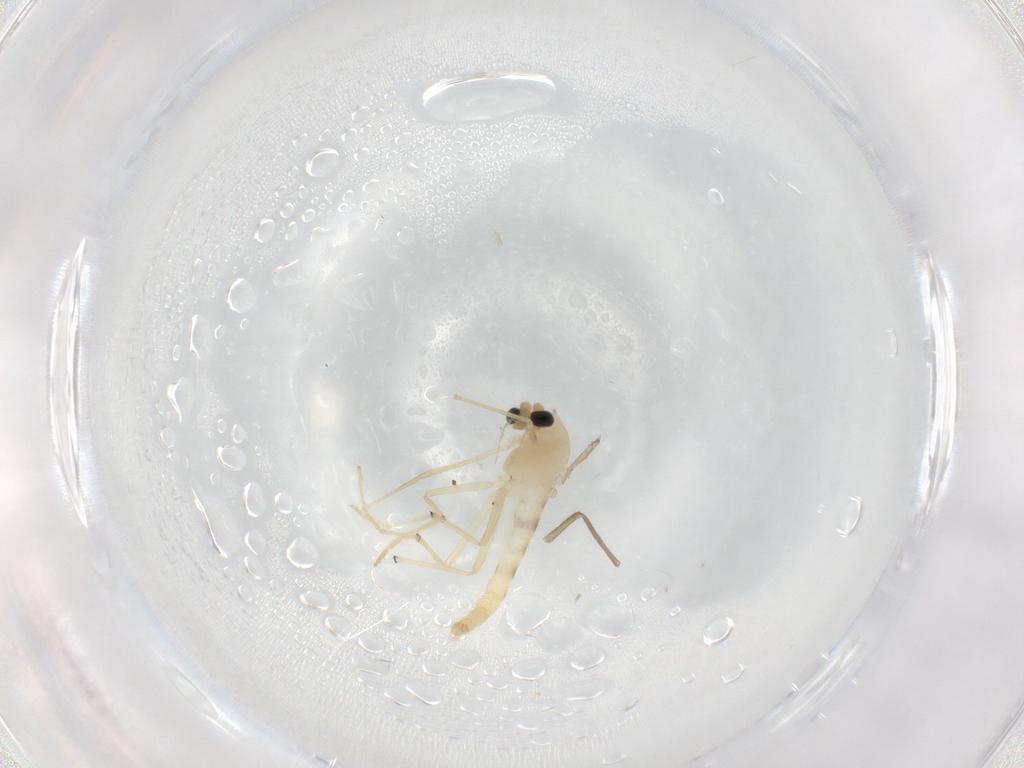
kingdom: Animalia
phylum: Arthropoda
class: Insecta
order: Diptera
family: Chironomidae
